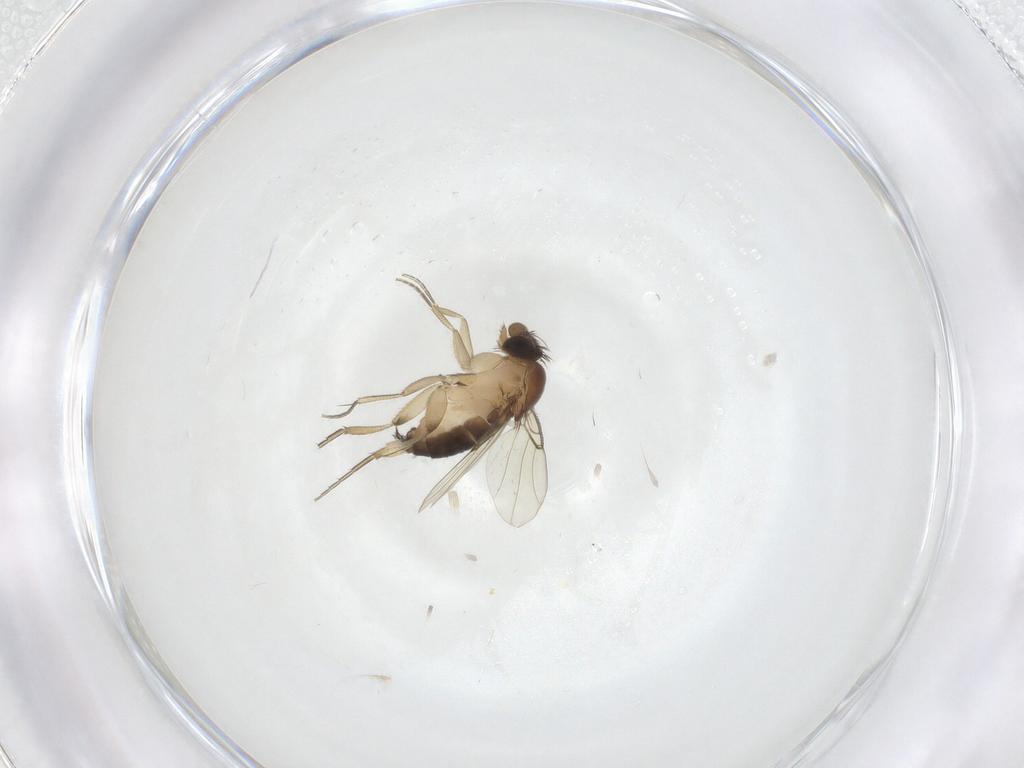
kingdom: Animalia
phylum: Arthropoda
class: Insecta
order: Diptera
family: Phoridae
